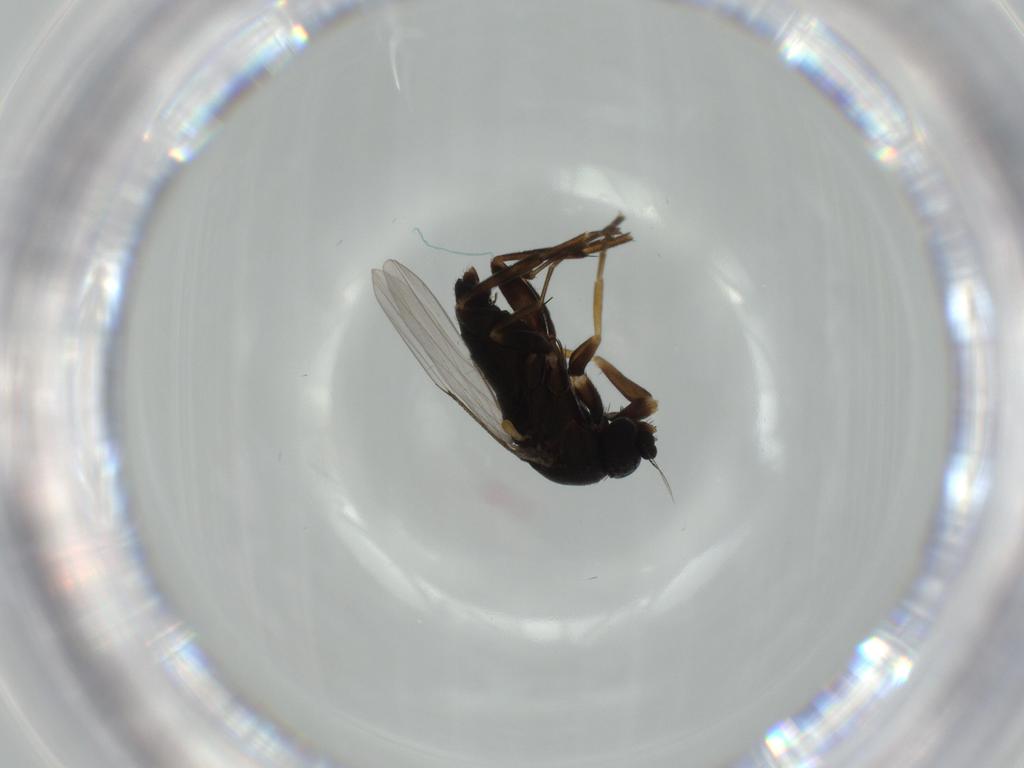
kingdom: Animalia
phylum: Arthropoda
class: Insecta
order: Diptera
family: Phoridae
